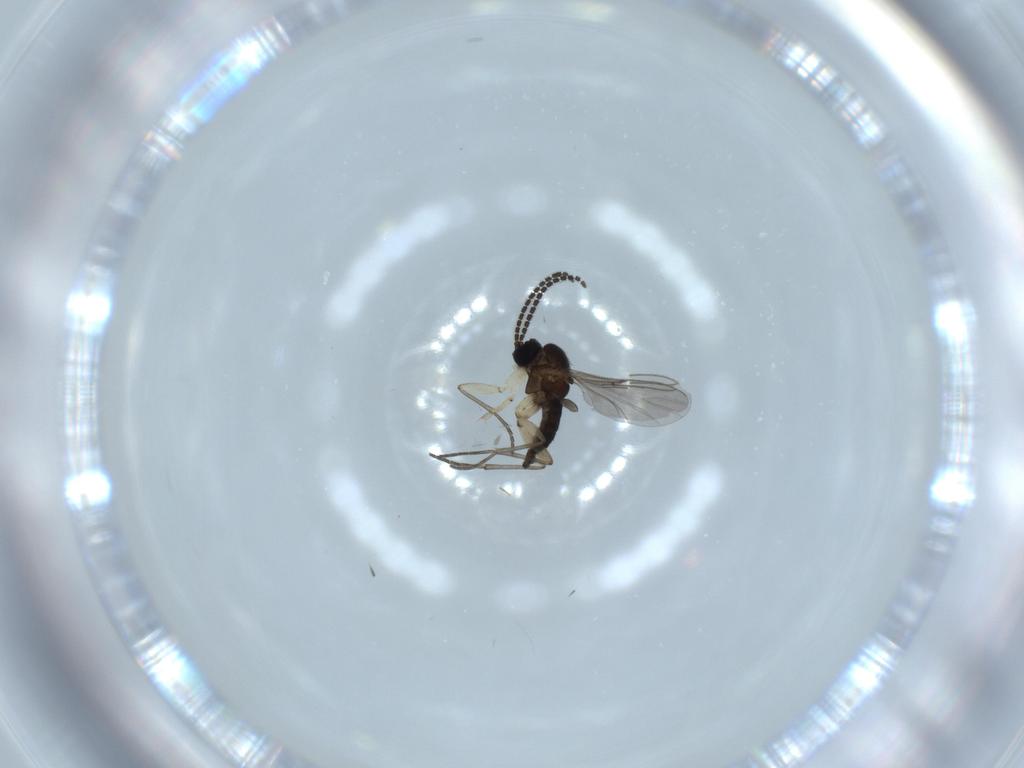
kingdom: Animalia
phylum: Arthropoda
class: Insecta
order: Diptera
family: Sciaridae
